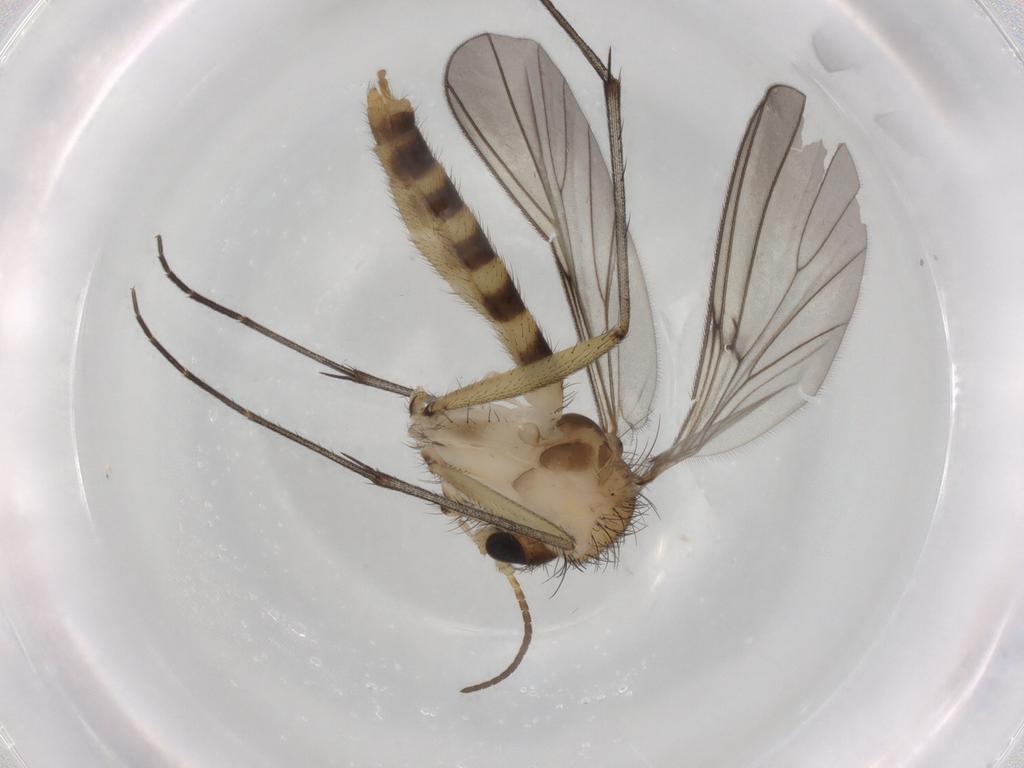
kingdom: Animalia
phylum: Arthropoda
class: Insecta
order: Diptera
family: Mycetophilidae
